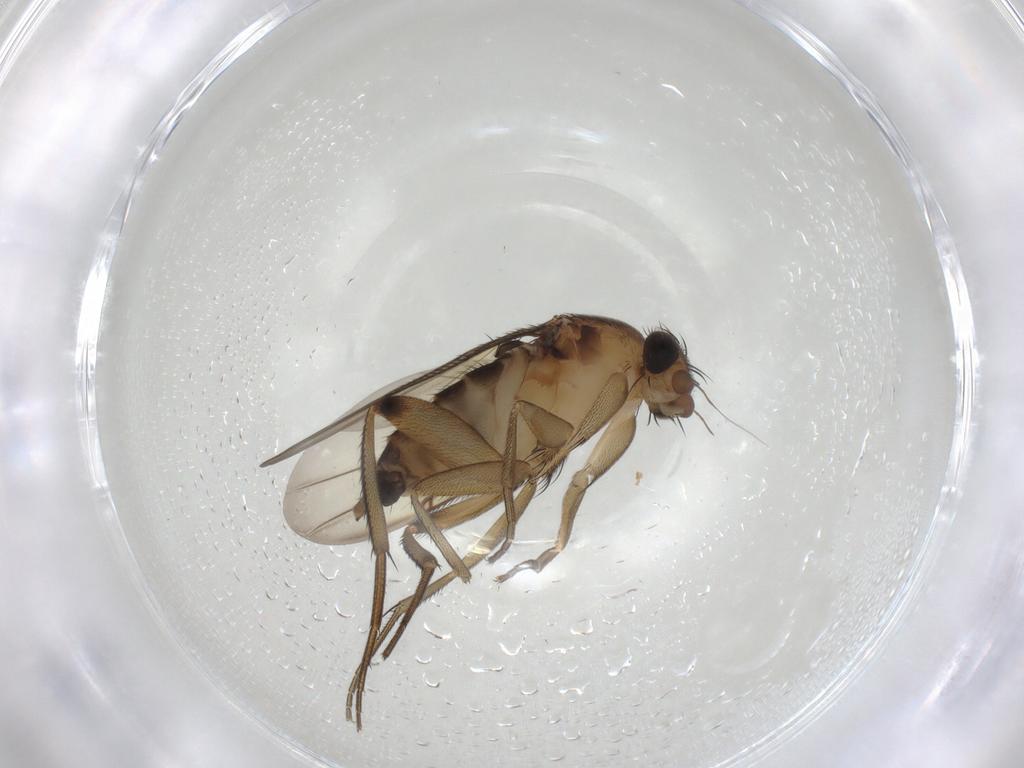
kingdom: Animalia
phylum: Arthropoda
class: Insecta
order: Diptera
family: Phoridae
